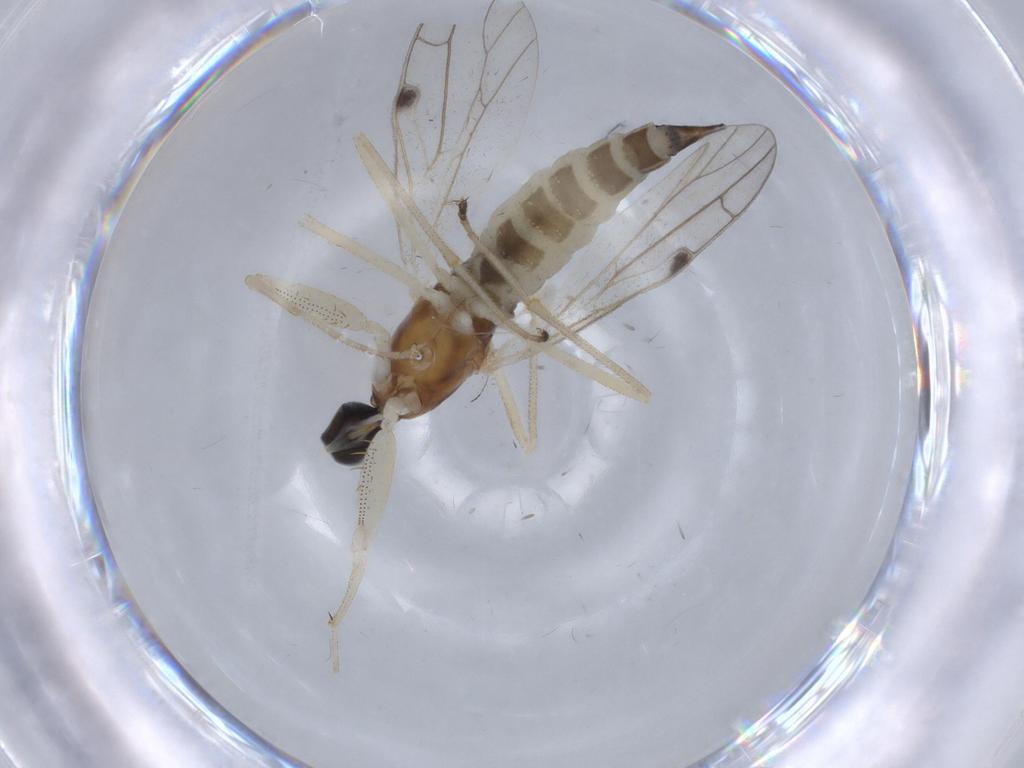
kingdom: Animalia
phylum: Arthropoda
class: Insecta
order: Diptera
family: Empididae
